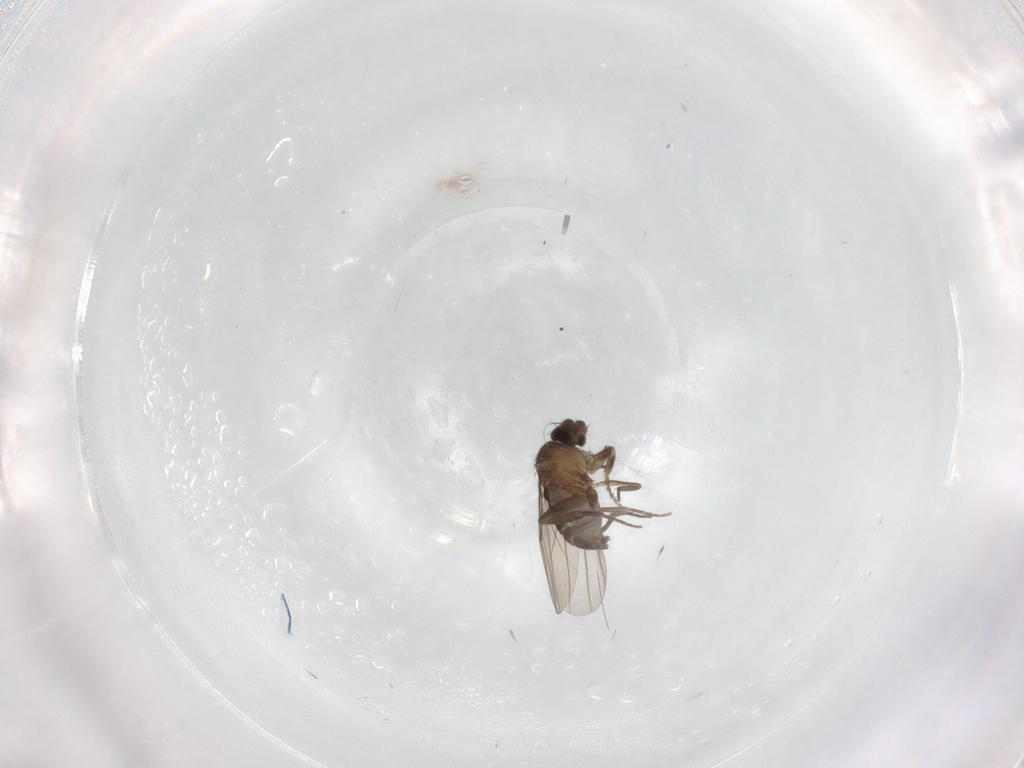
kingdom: Animalia
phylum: Arthropoda
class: Insecta
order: Diptera
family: Phoridae
